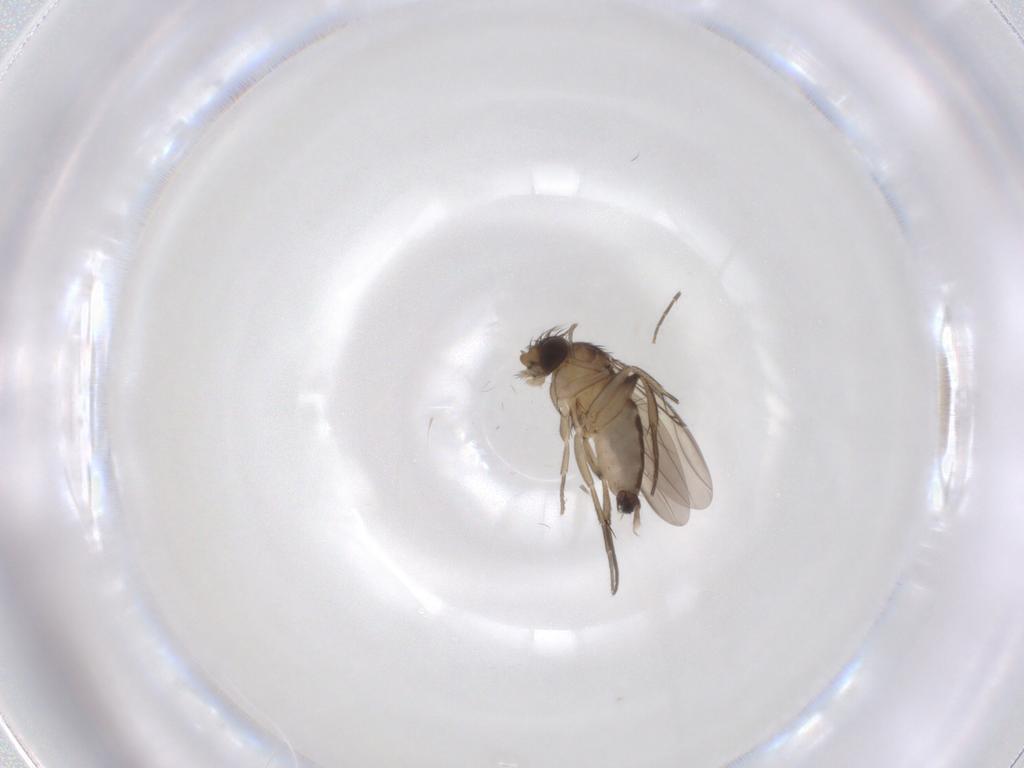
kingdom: Animalia
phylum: Arthropoda
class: Insecta
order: Diptera
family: Phoridae
